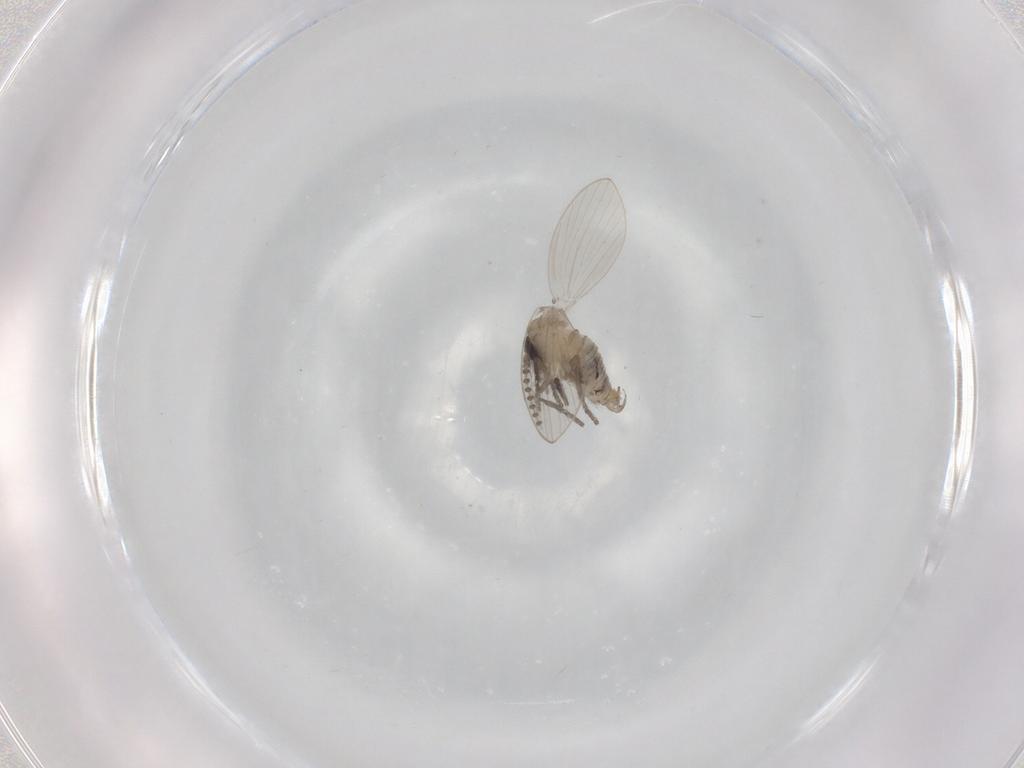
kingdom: Animalia
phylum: Arthropoda
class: Insecta
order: Diptera
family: Psychodidae
